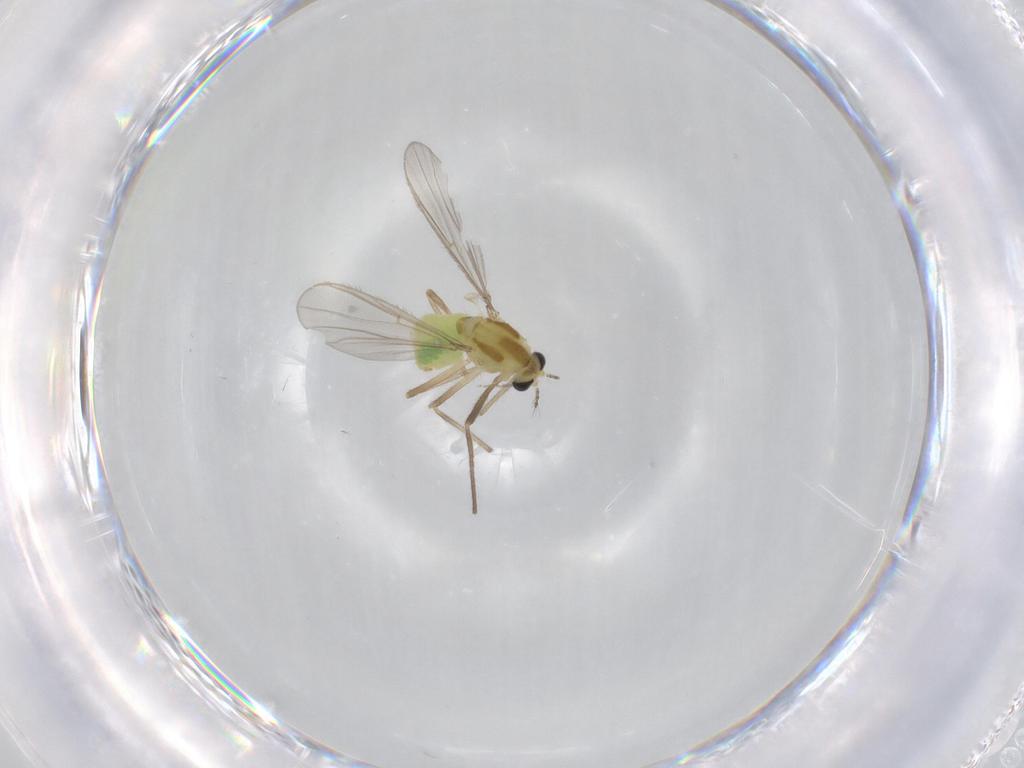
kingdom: Animalia
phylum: Arthropoda
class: Insecta
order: Diptera
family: Chironomidae
